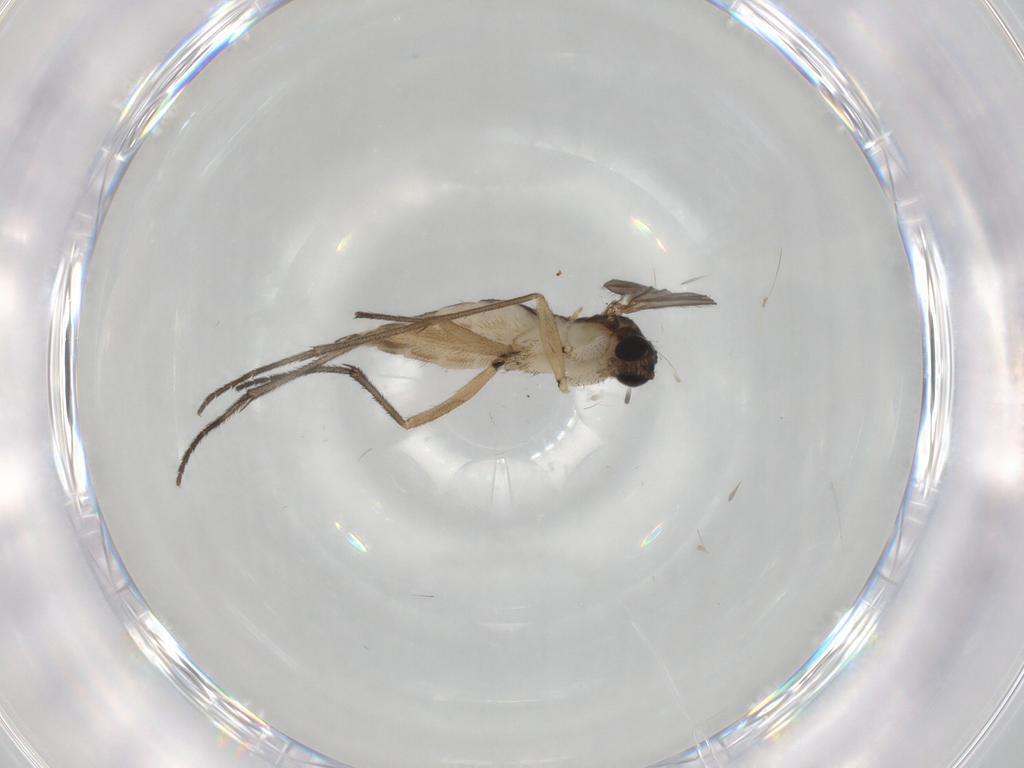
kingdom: Animalia
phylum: Arthropoda
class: Insecta
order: Diptera
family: Sciaridae
